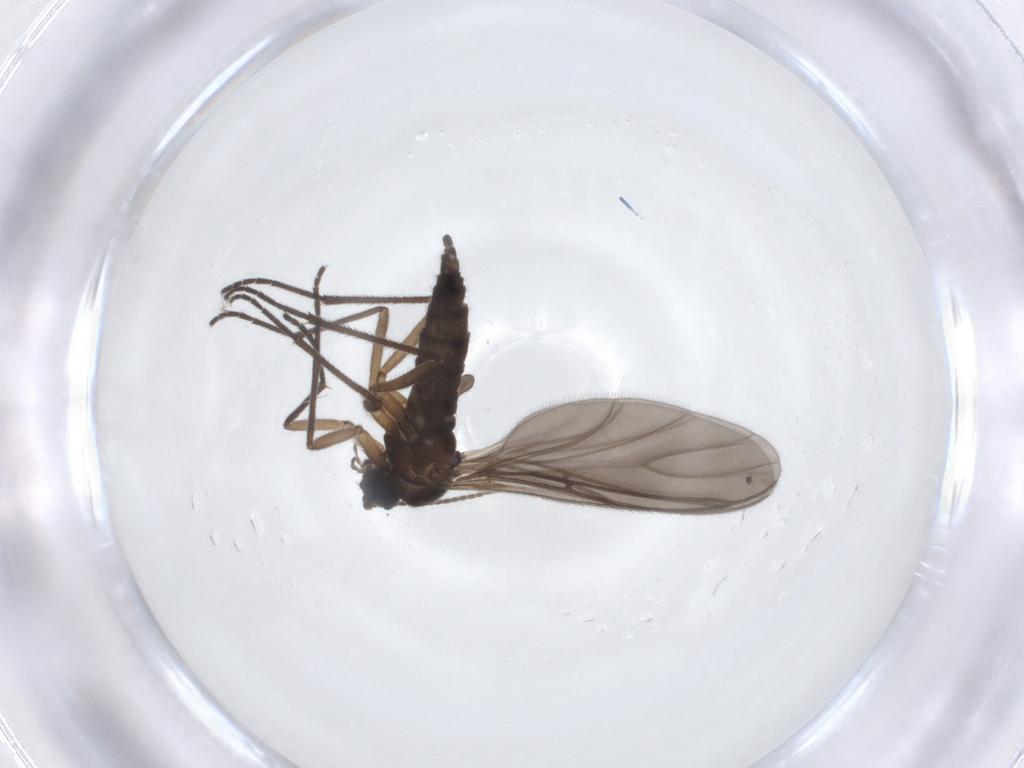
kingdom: Animalia
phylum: Arthropoda
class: Insecta
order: Diptera
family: Sciaridae
